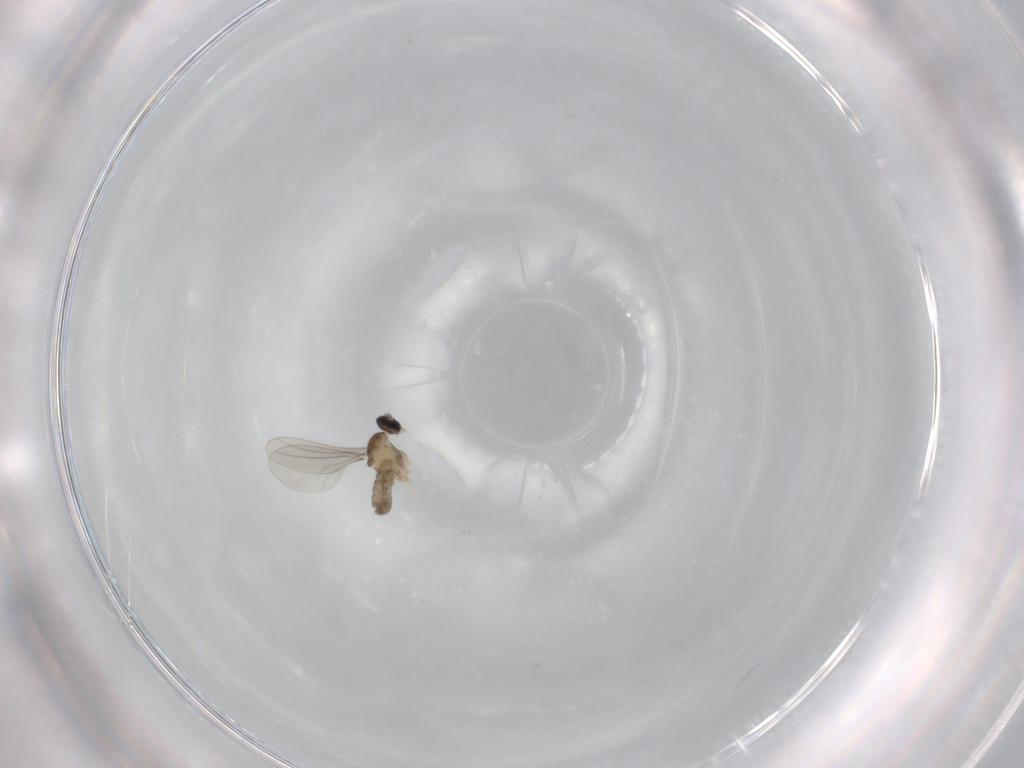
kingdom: Animalia
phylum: Arthropoda
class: Insecta
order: Diptera
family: Cecidomyiidae
